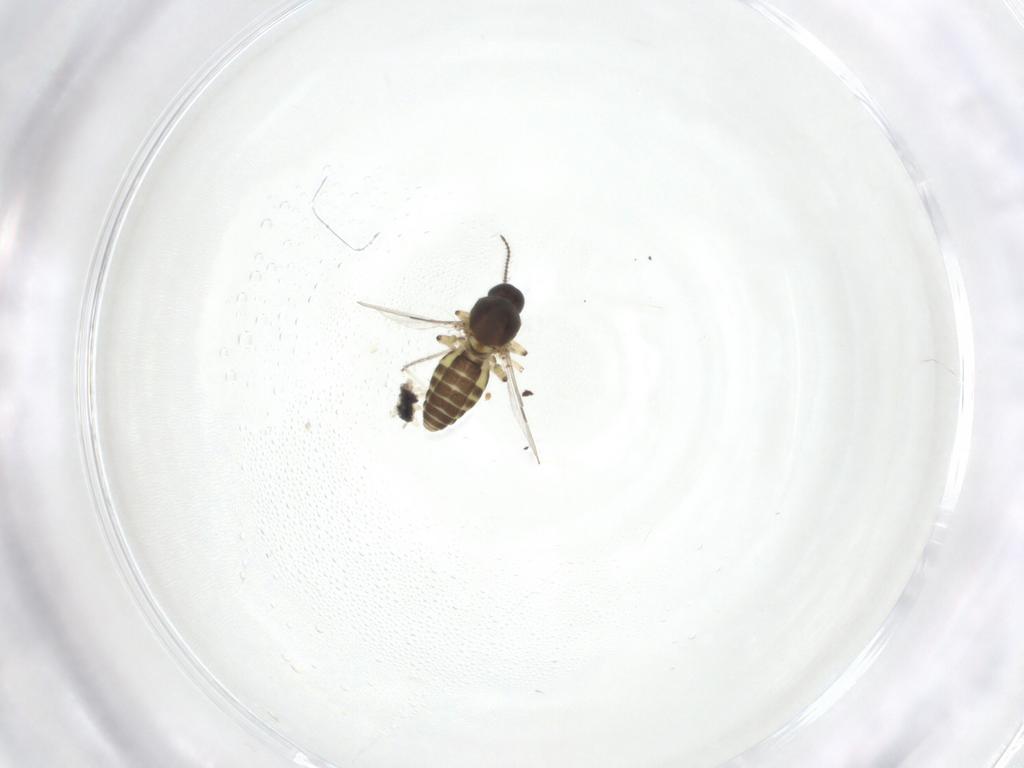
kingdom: Animalia
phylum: Arthropoda
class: Insecta
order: Diptera
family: Ceratopogonidae
